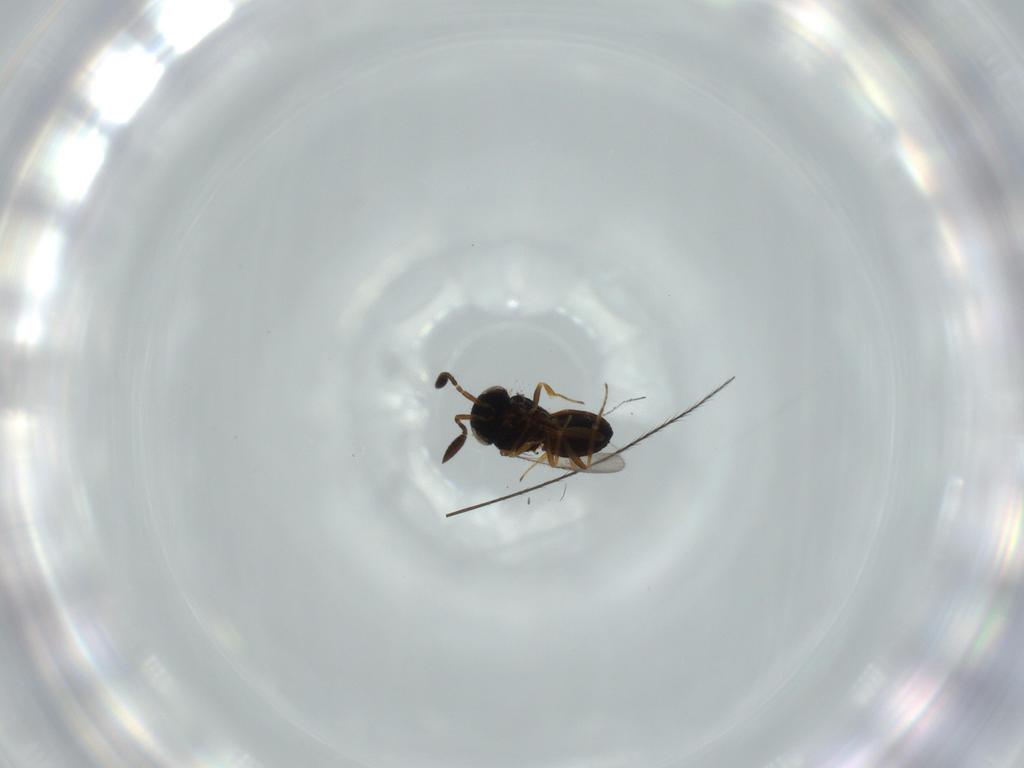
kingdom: Animalia
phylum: Arthropoda
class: Insecta
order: Hymenoptera
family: Scelionidae
